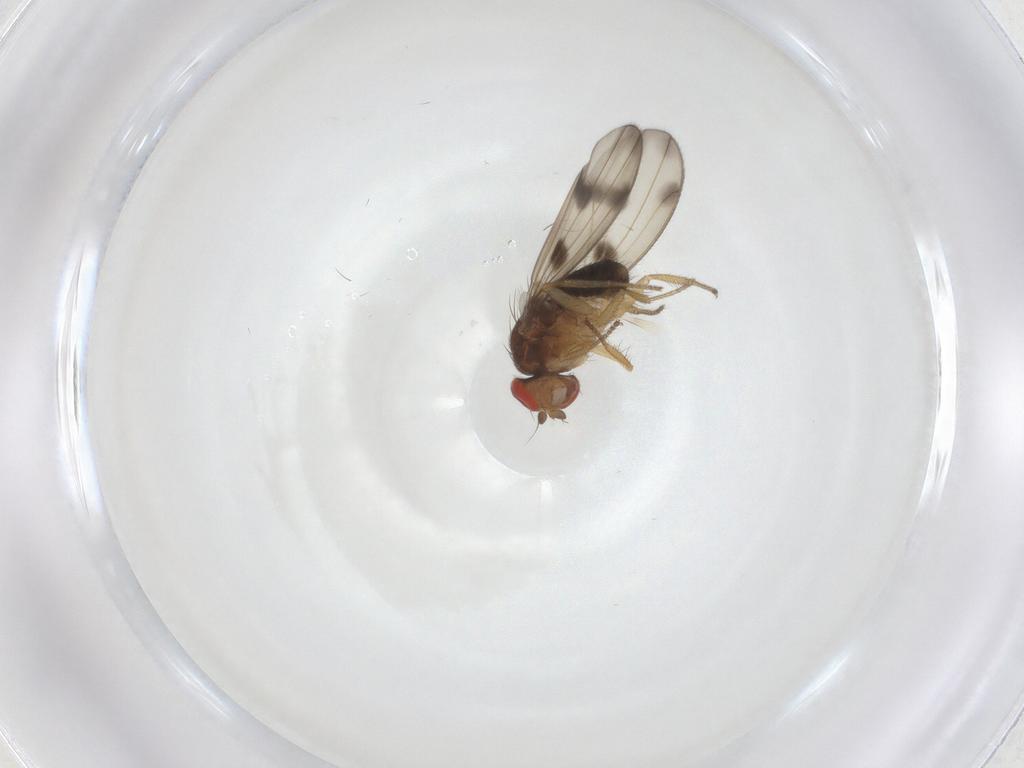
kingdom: Animalia
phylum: Arthropoda
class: Insecta
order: Diptera
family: Drosophilidae
